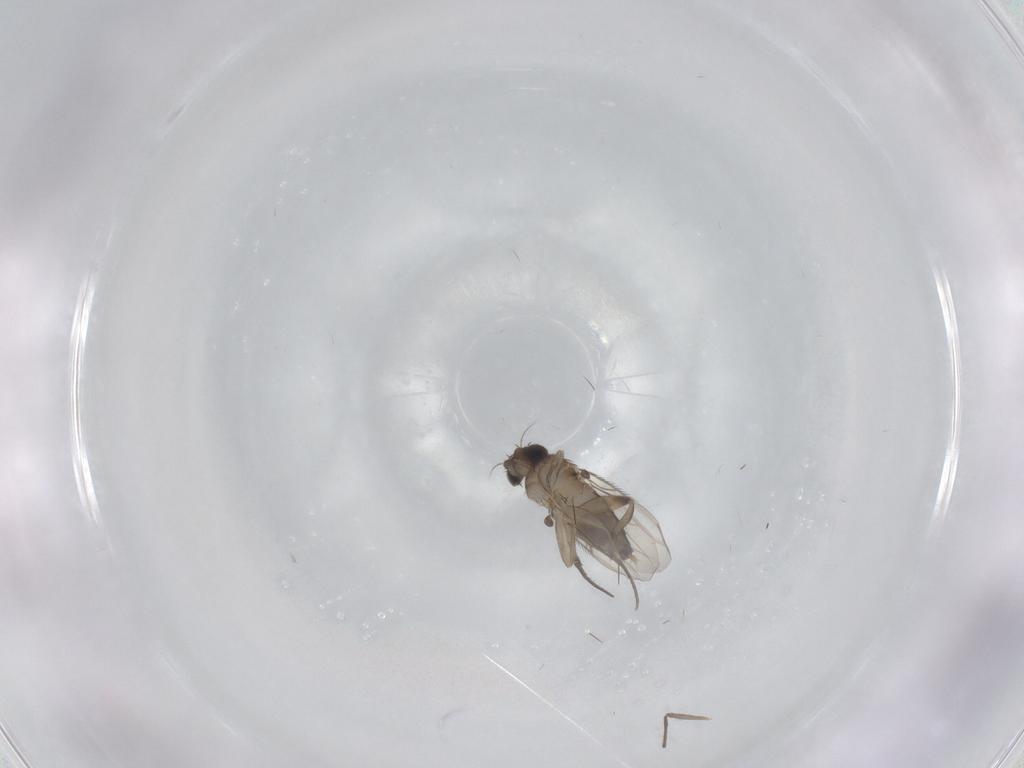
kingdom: Animalia
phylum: Arthropoda
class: Insecta
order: Diptera
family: Phoridae
